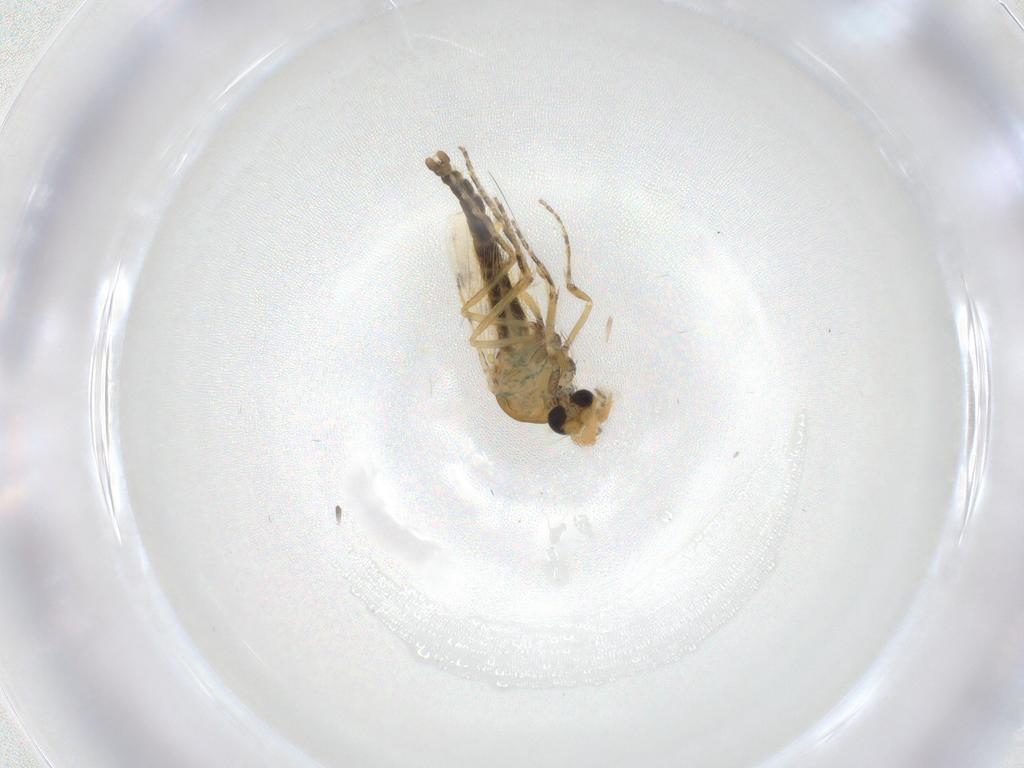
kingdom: Animalia
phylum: Arthropoda
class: Insecta
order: Diptera
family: Ceratopogonidae
